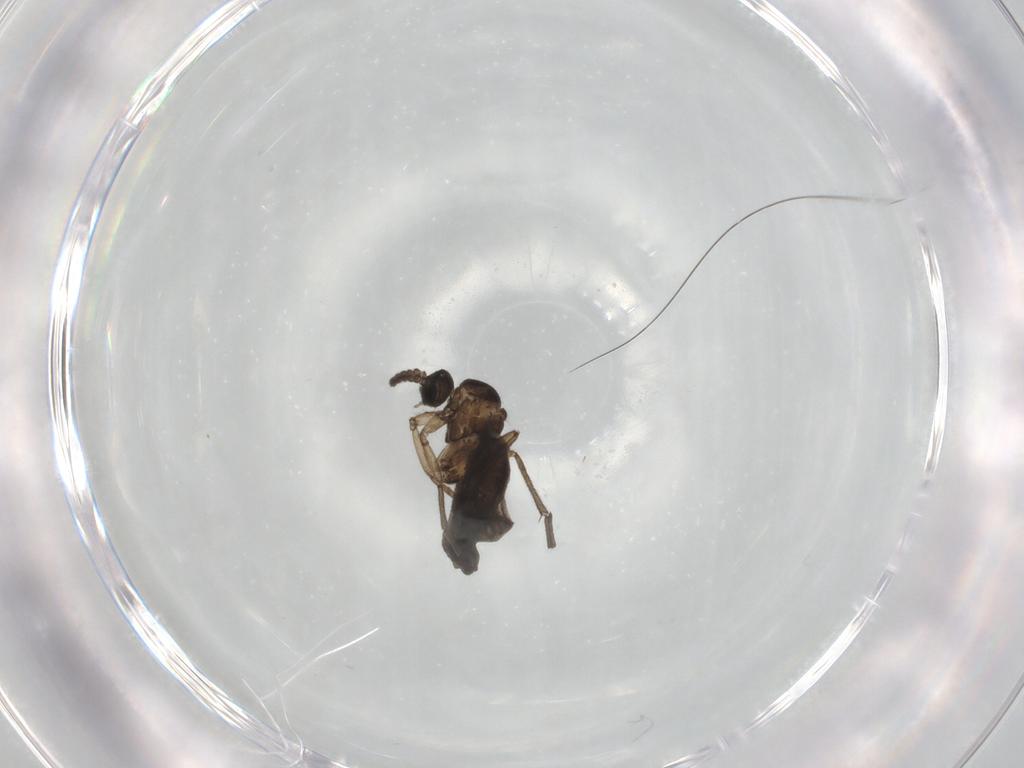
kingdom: Animalia
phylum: Arthropoda
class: Insecta
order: Diptera
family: Sciaridae
